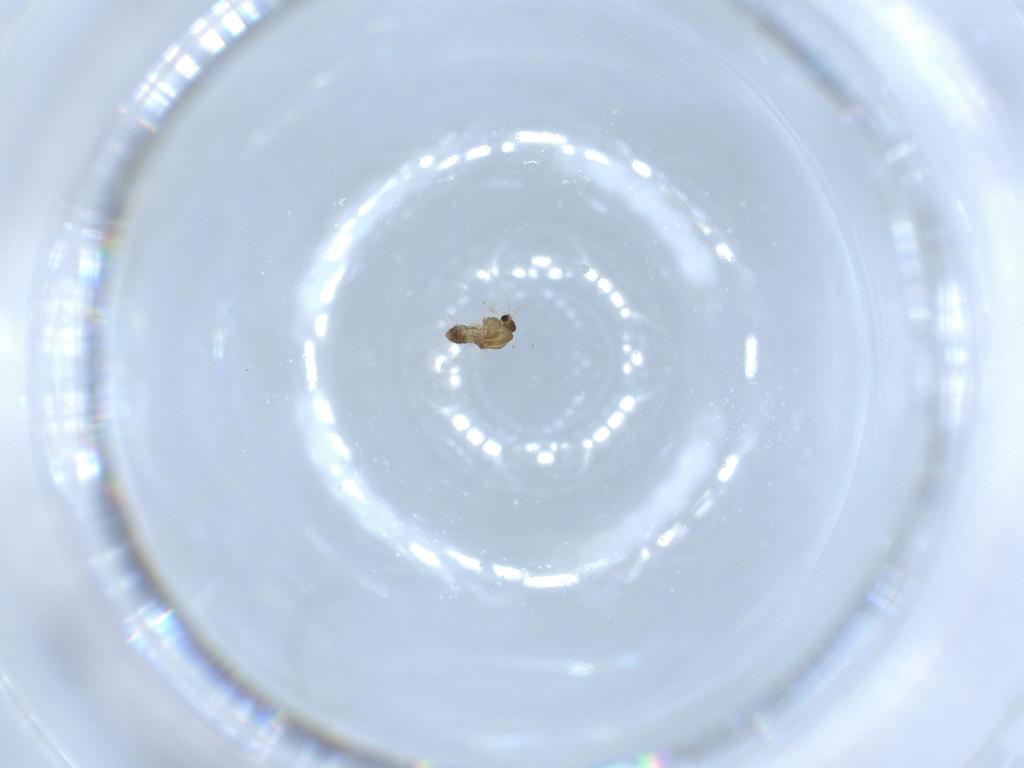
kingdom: Animalia
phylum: Arthropoda
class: Insecta
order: Diptera
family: Chironomidae
